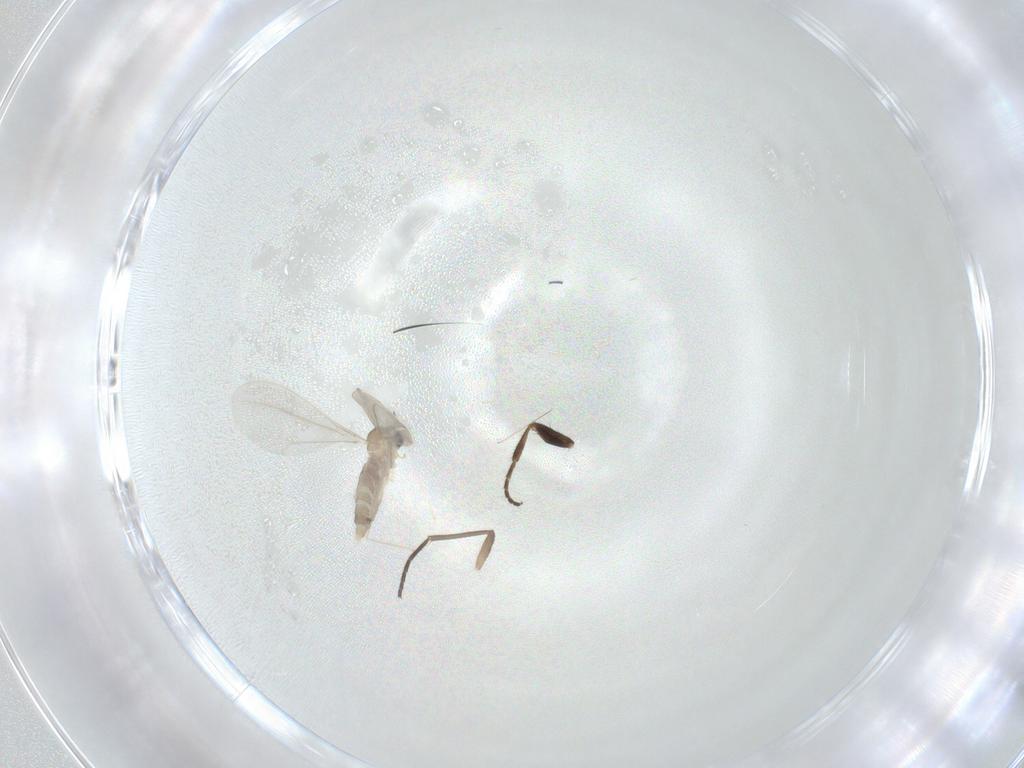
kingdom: Animalia
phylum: Arthropoda
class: Insecta
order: Diptera
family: Cecidomyiidae
